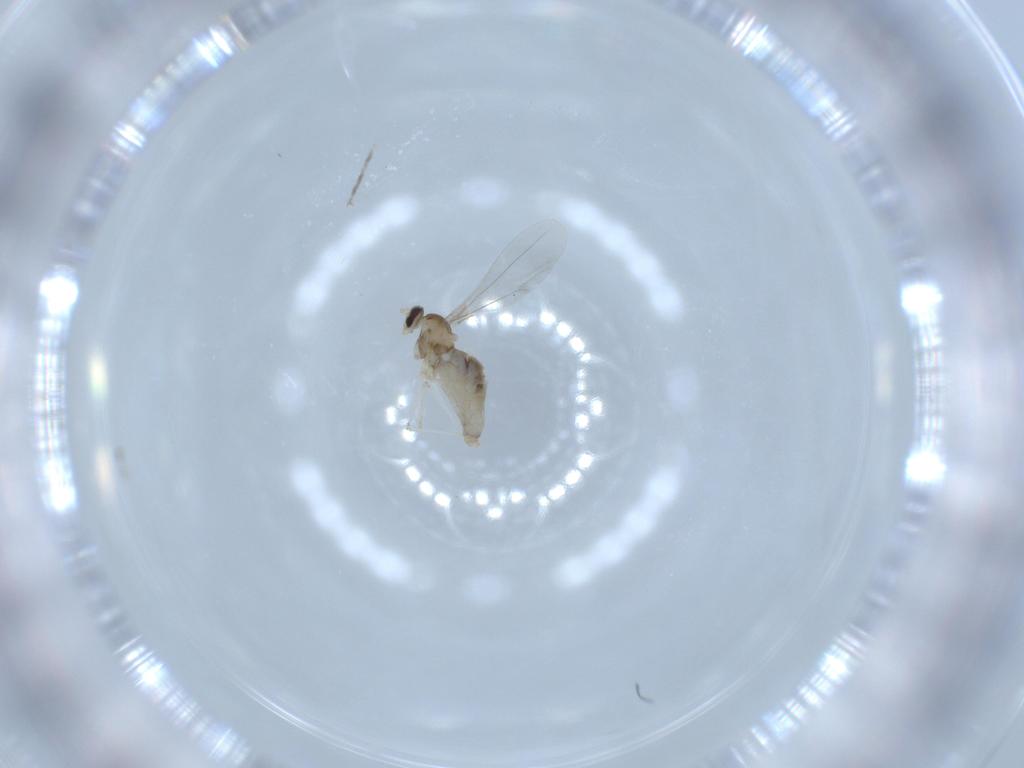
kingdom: Animalia
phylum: Arthropoda
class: Insecta
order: Diptera
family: Cecidomyiidae
